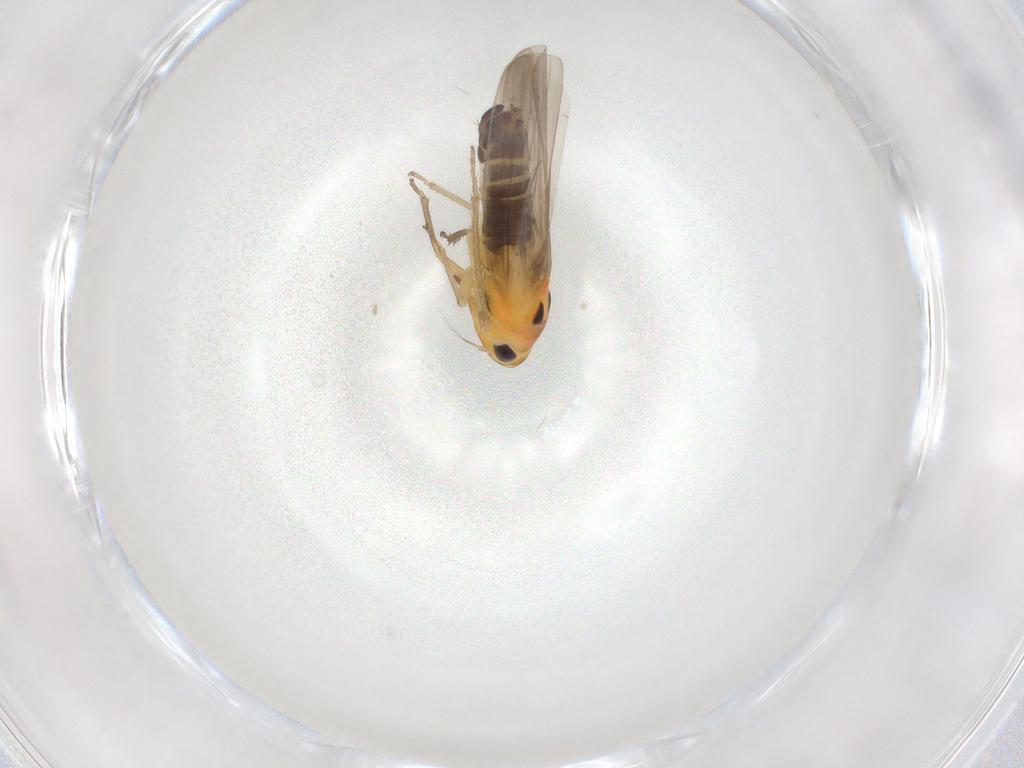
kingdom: Animalia
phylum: Arthropoda
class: Insecta
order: Hemiptera
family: Cicadellidae
